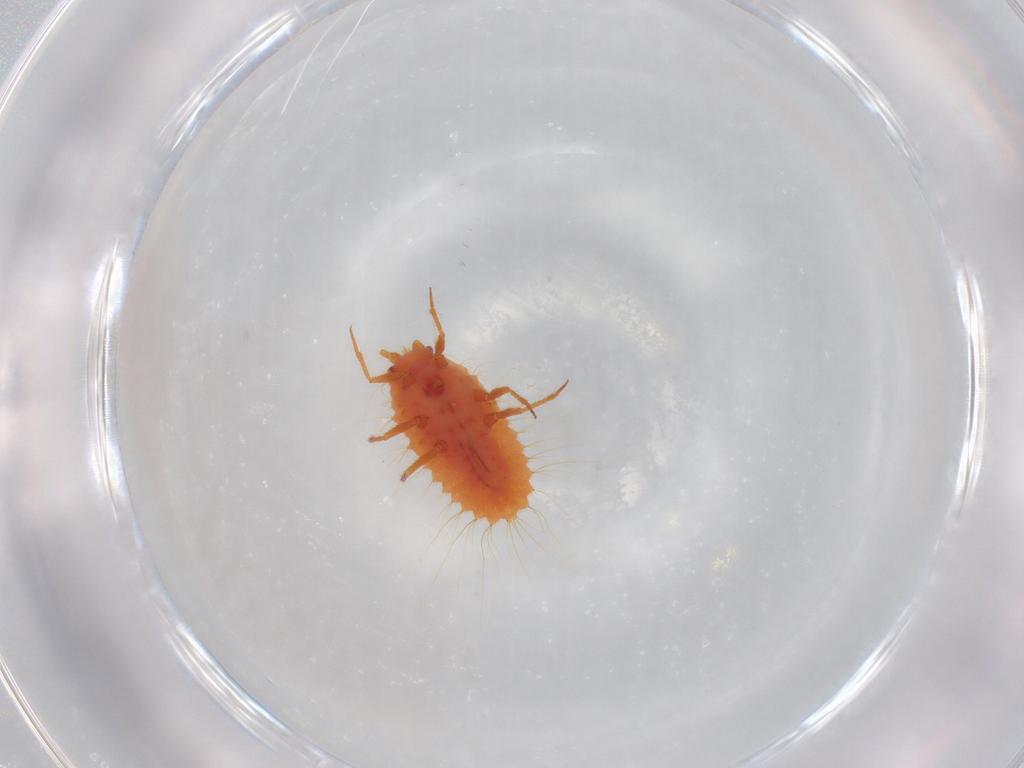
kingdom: Animalia
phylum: Arthropoda
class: Insecta
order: Hemiptera
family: Cicadellidae
